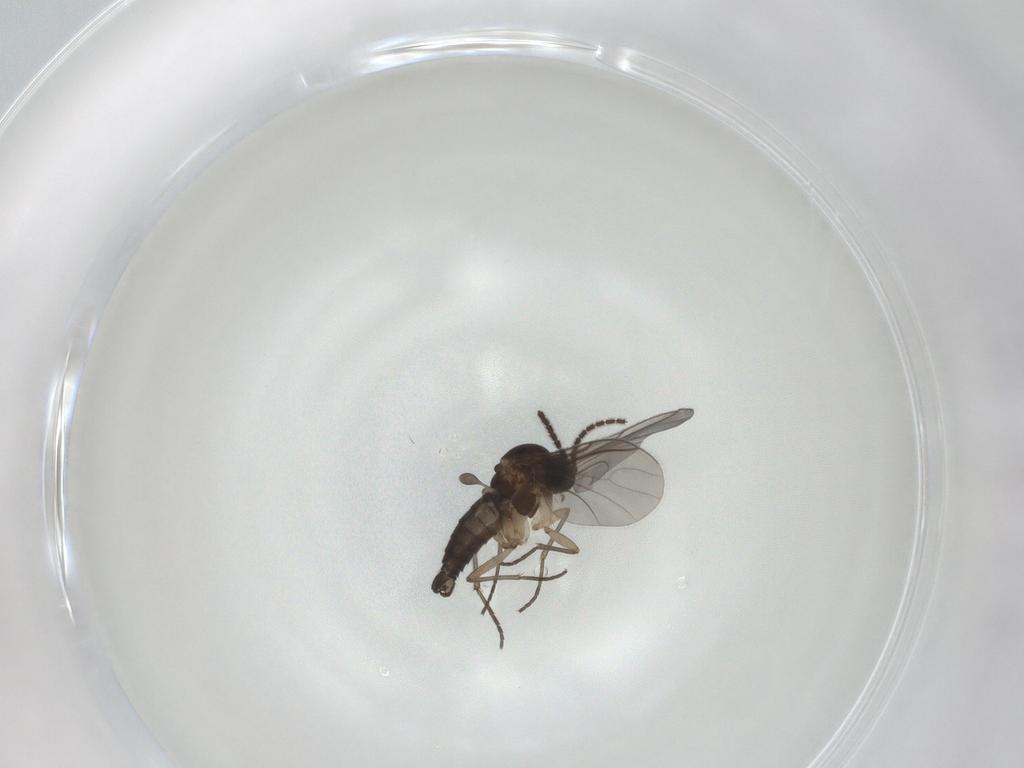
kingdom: Animalia
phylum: Arthropoda
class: Insecta
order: Diptera
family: Sciaridae
